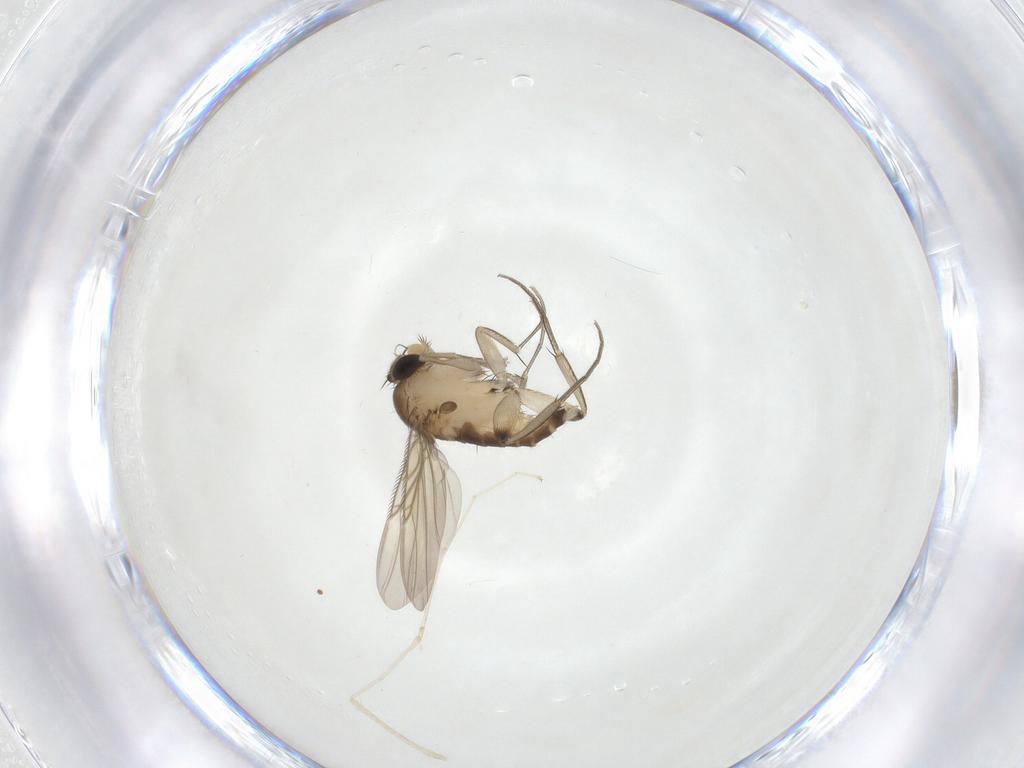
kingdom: Animalia
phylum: Arthropoda
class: Insecta
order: Diptera
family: Phoridae
